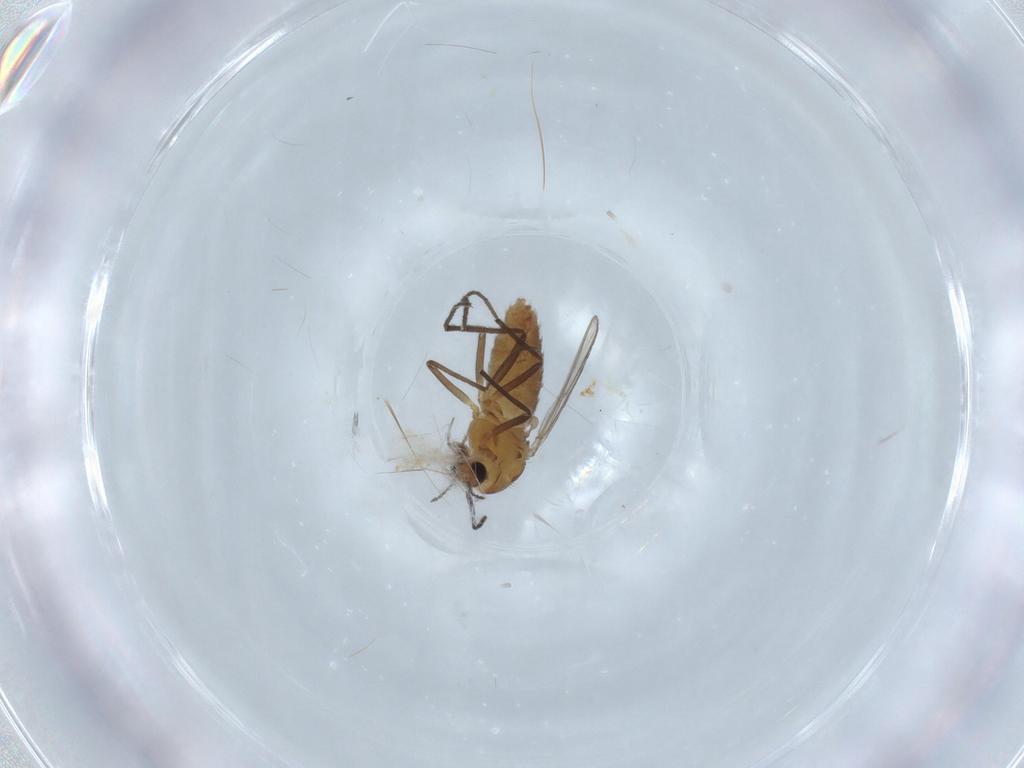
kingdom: Animalia
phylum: Arthropoda
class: Insecta
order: Diptera
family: Chironomidae
